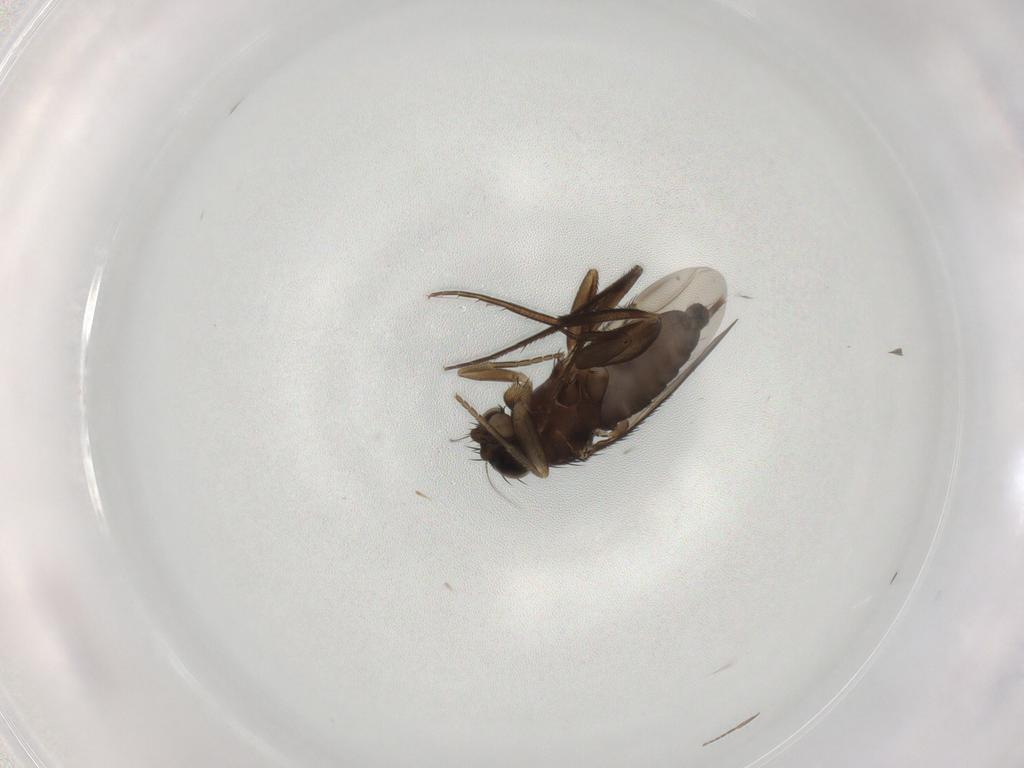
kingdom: Animalia
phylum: Arthropoda
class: Insecta
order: Diptera
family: Phoridae
